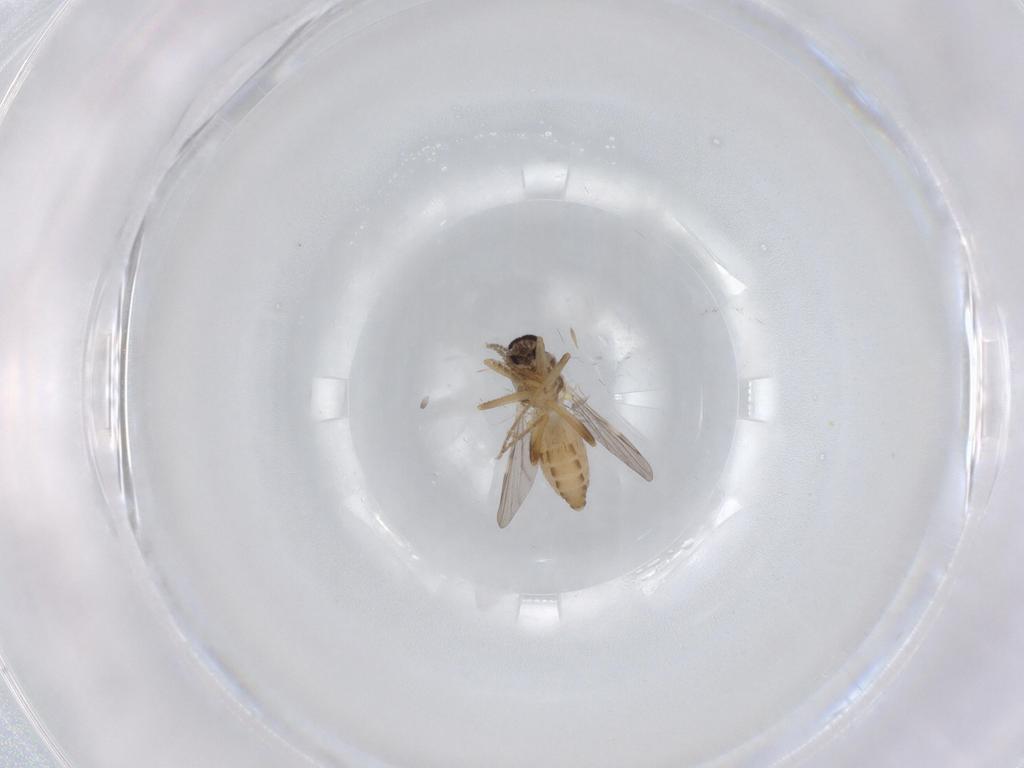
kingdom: Animalia
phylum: Arthropoda
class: Insecta
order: Diptera
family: Ceratopogonidae
